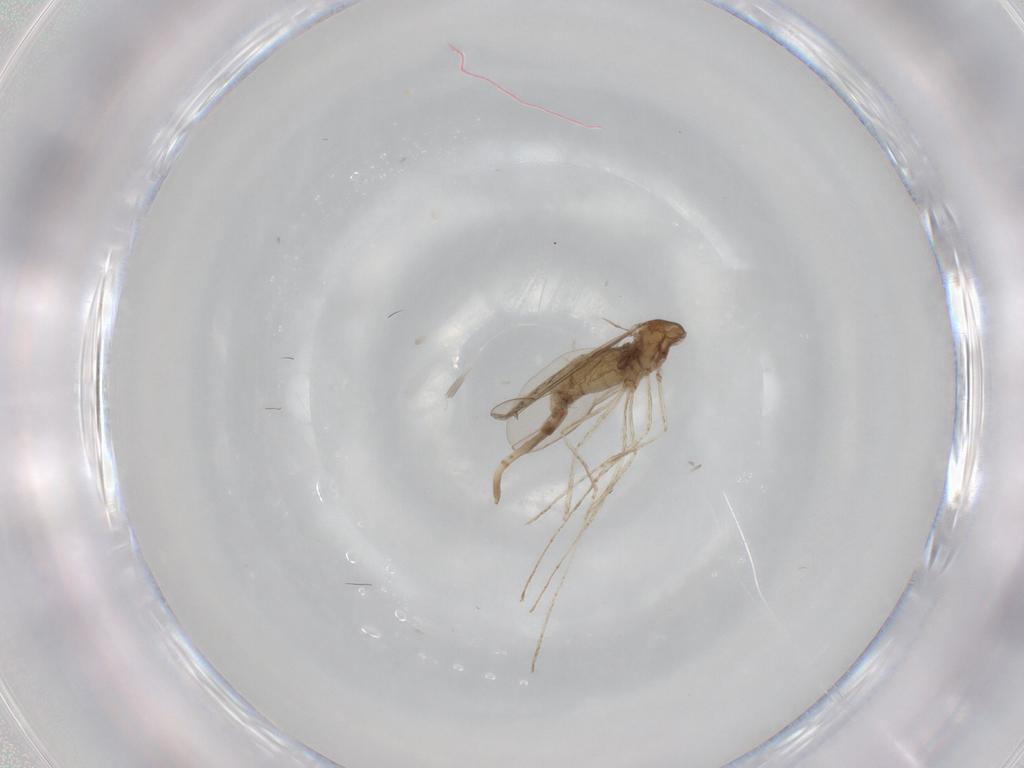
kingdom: Animalia
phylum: Arthropoda
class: Insecta
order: Diptera
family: Cecidomyiidae
